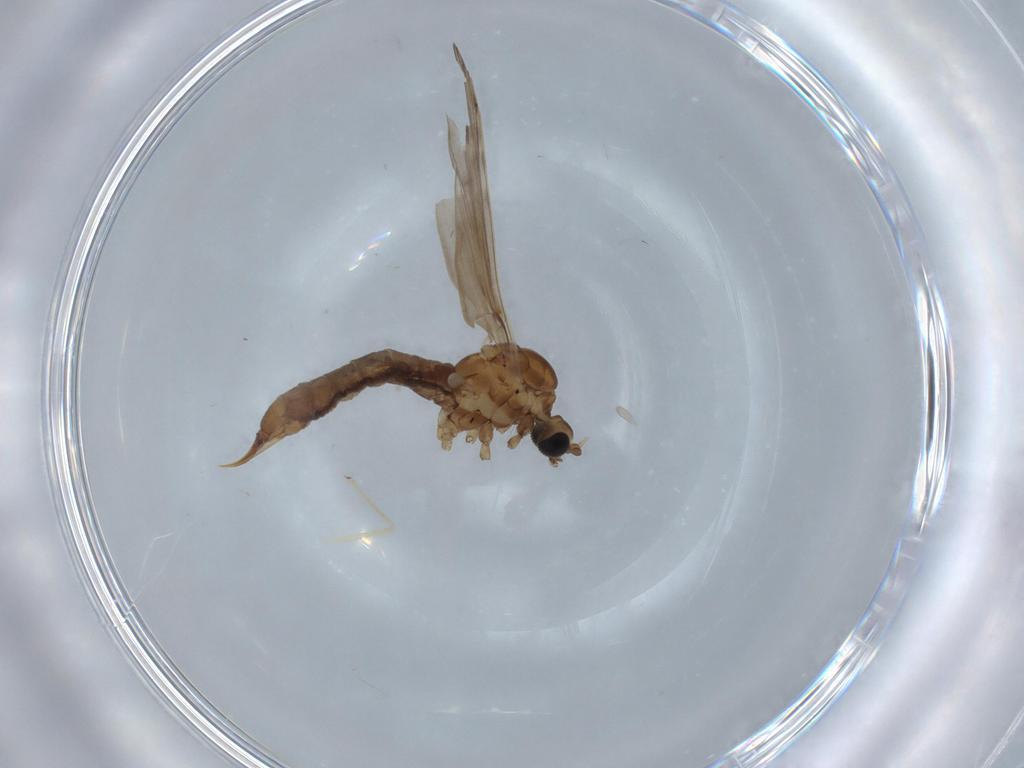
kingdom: Animalia
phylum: Arthropoda
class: Insecta
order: Diptera
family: Limoniidae
